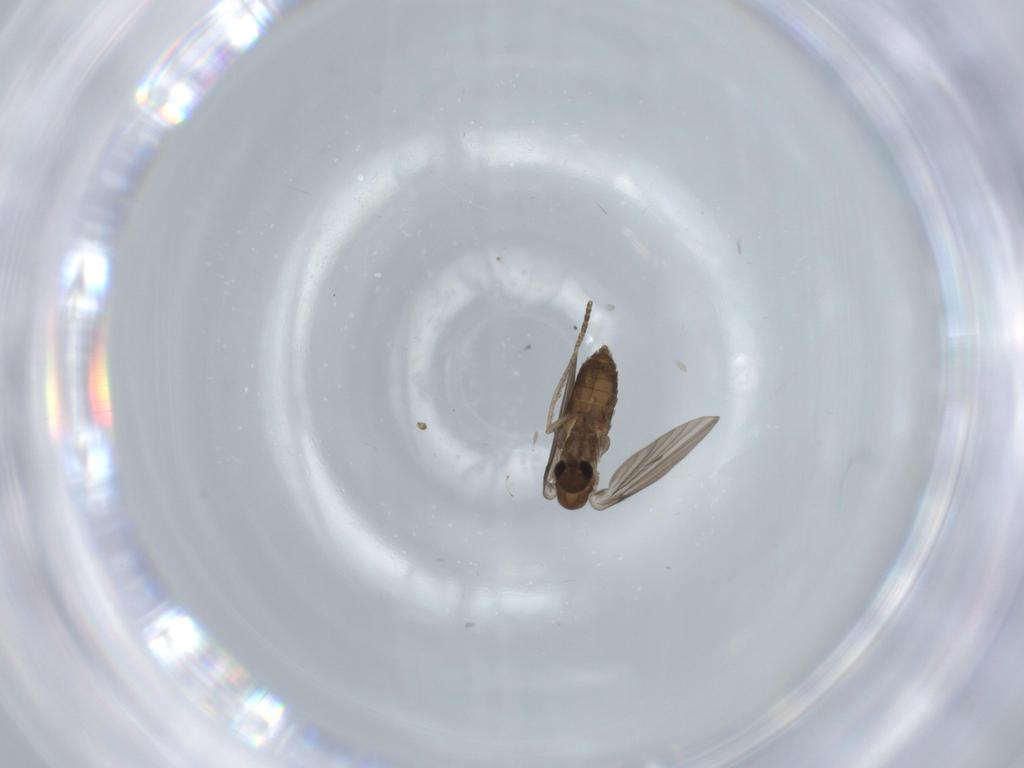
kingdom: Animalia
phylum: Arthropoda
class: Insecta
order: Diptera
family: Psychodidae
